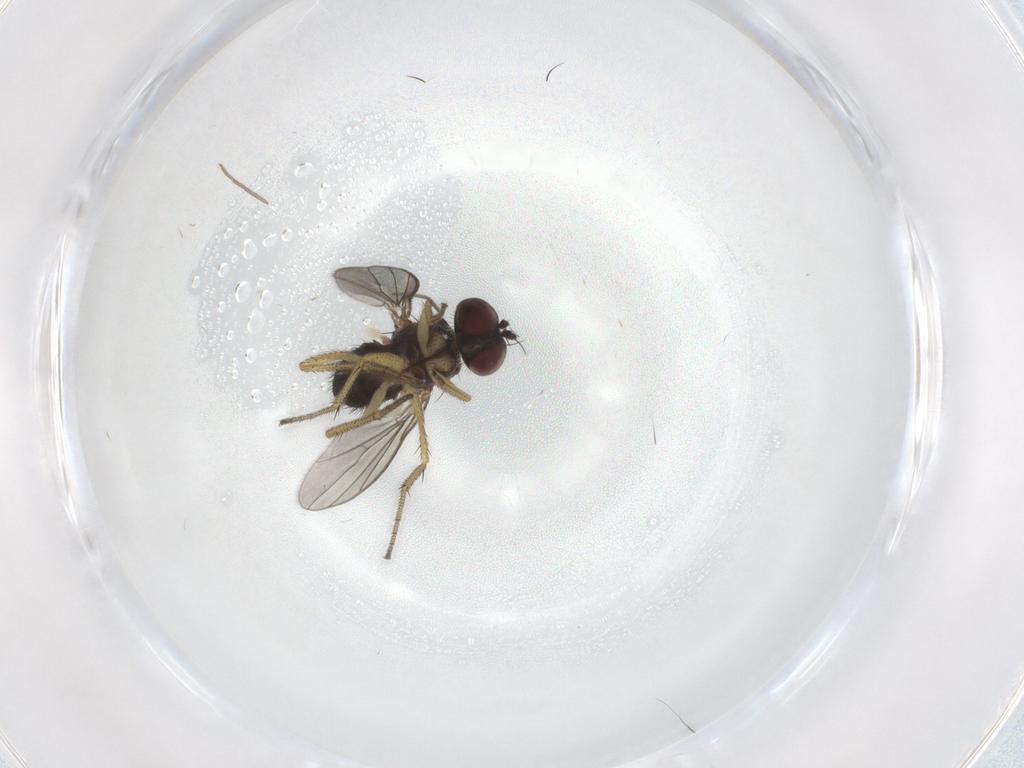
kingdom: Animalia
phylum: Arthropoda
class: Insecta
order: Diptera
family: Dolichopodidae
